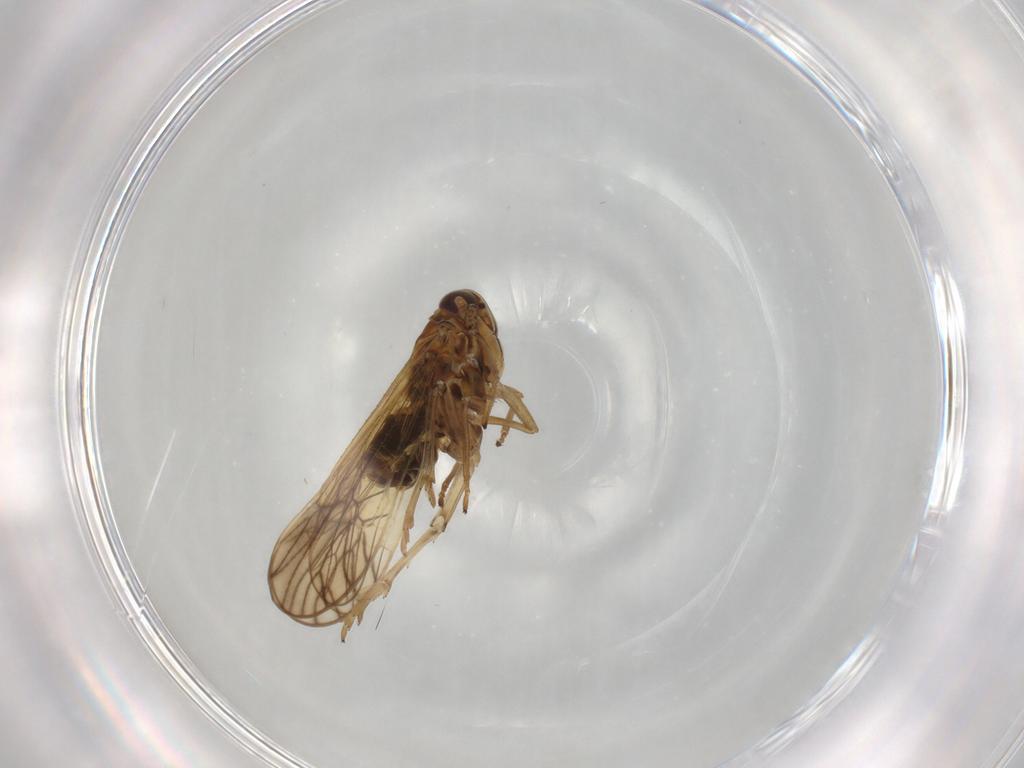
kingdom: Animalia
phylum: Arthropoda
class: Insecta
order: Hemiptera
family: Delphacidae
